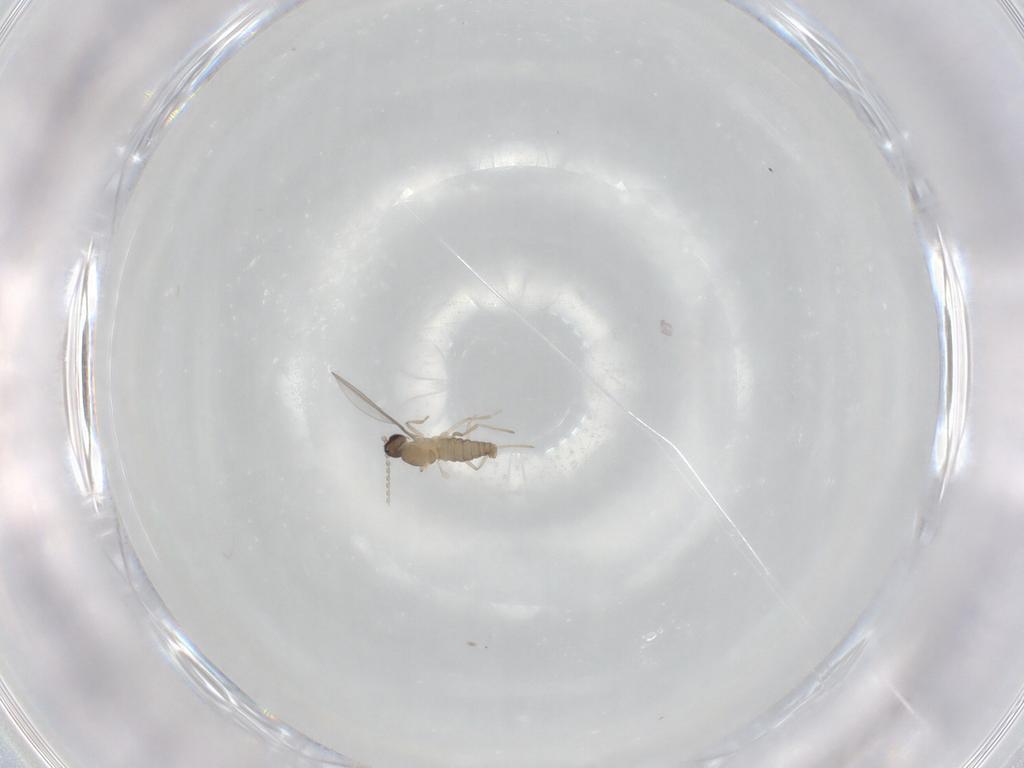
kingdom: Animalia
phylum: Arthropoda
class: Insecta
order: Diptera
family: Cecidomyiidae
